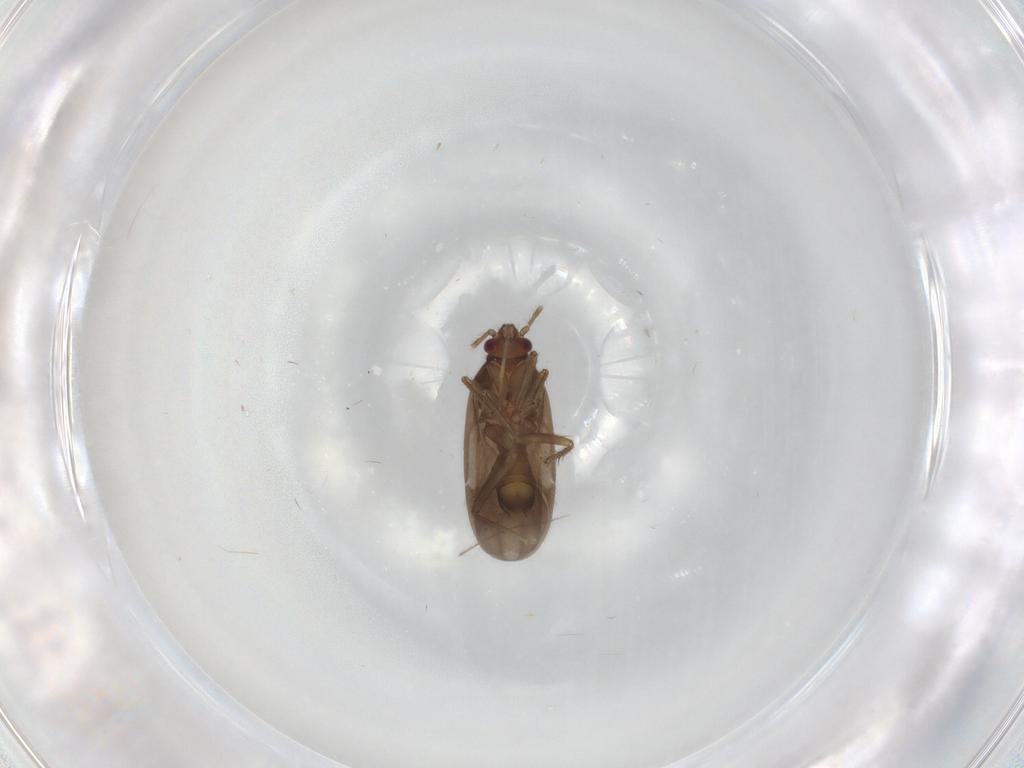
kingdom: Animalia
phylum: Arthropoda
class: Insecta
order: Hemiptera
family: Ceratocombidae
